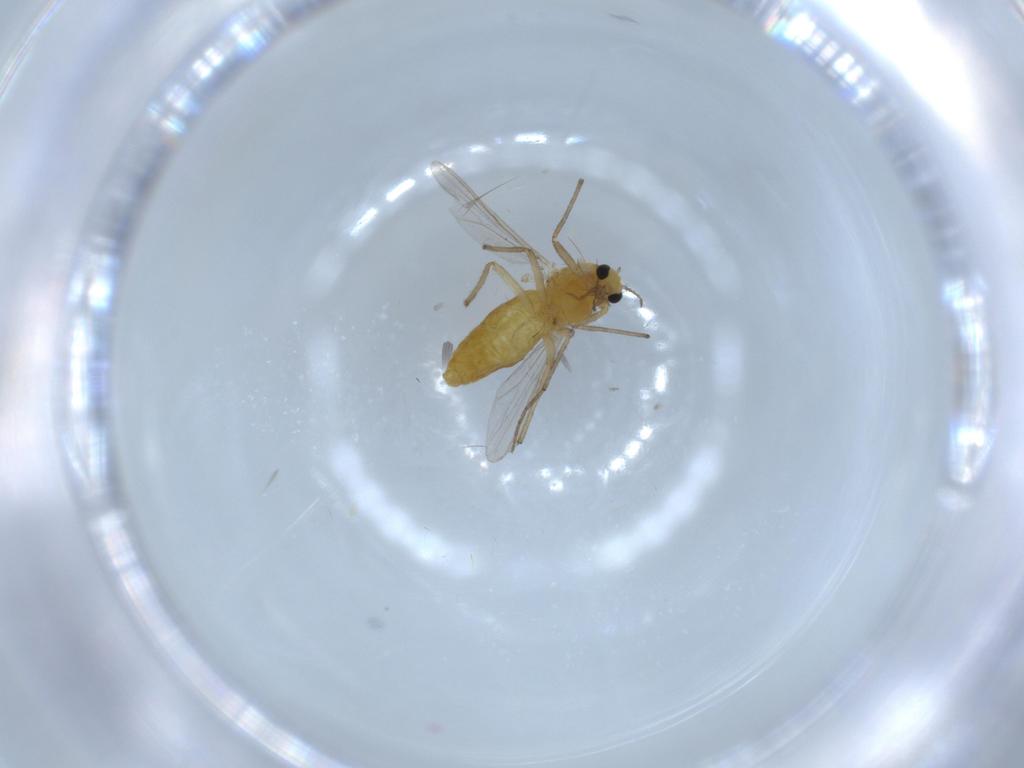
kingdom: Animalia
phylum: Arthropoda
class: Insecta
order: Diptera
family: Chironomidae
